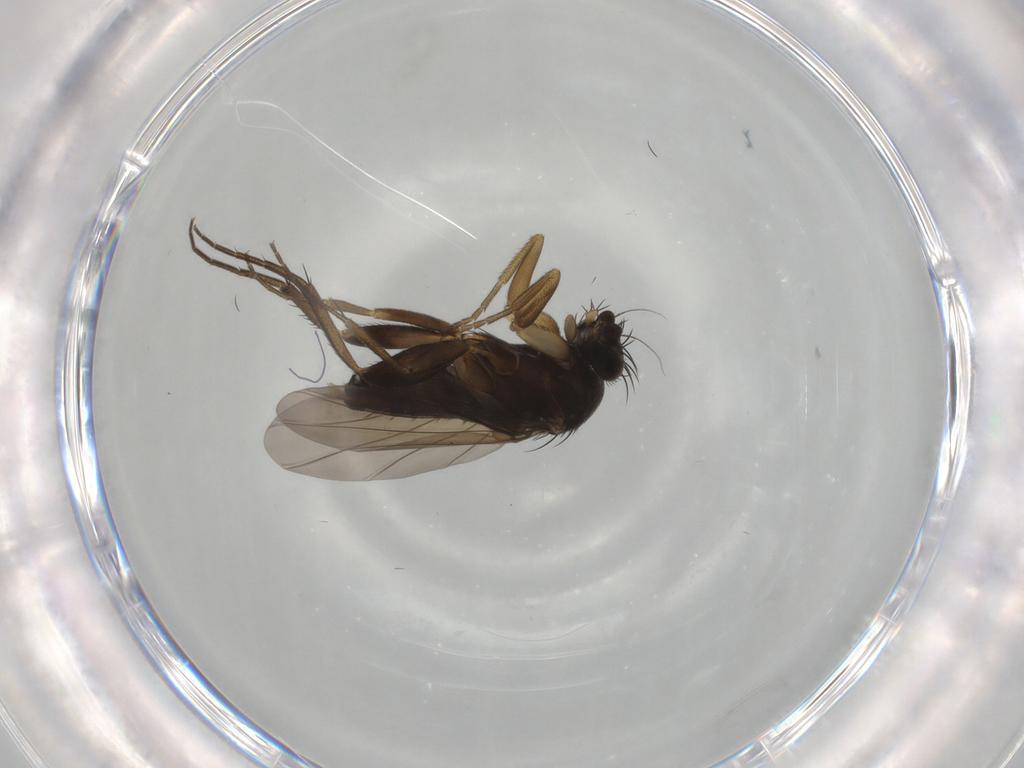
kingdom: Animalia
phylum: Arthropoda
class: Insecta
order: Diptera
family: Phoridae
